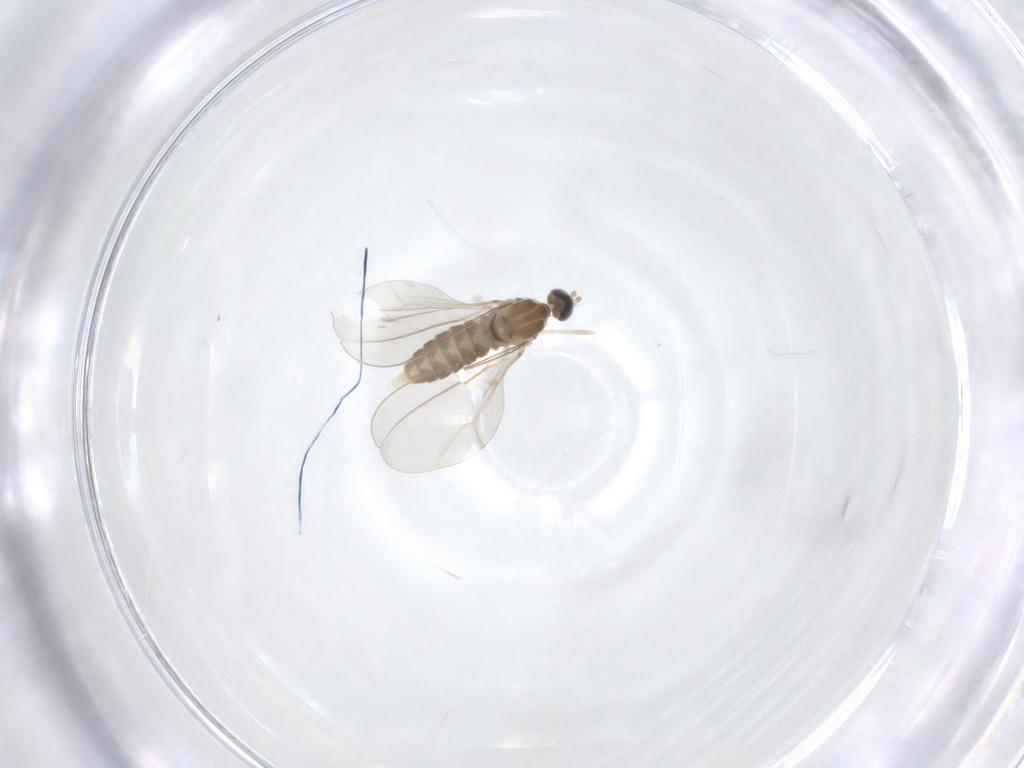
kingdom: Animalia
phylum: Arthropoda
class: Insecta
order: Diptera
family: Cecidomyiidae
